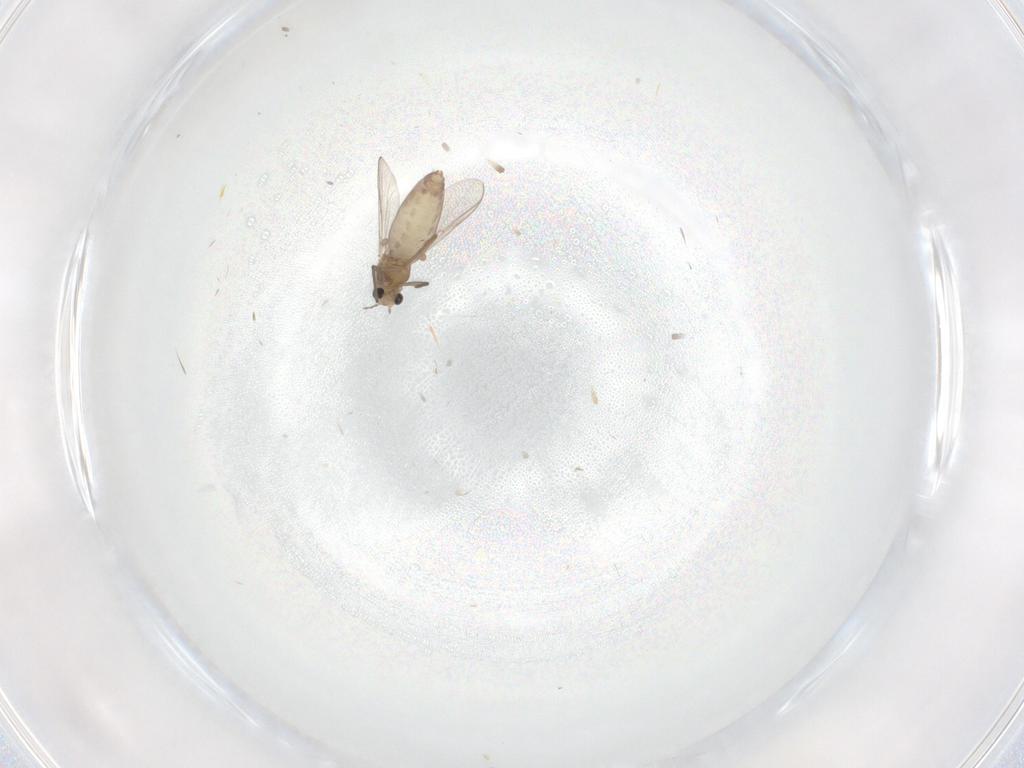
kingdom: Animalia
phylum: Arthropoda
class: Insecta
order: Diptera
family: Chironomidae
